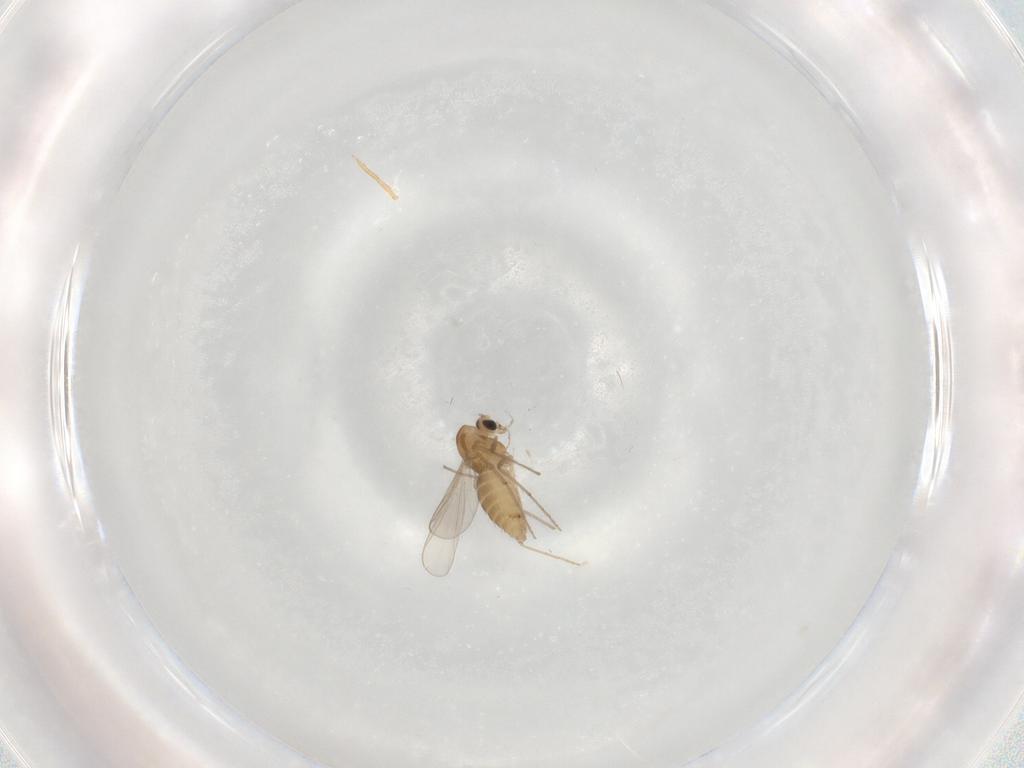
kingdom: Animalia
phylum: Arthropoda
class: Insecta
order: Diptera
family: Chironomidae
